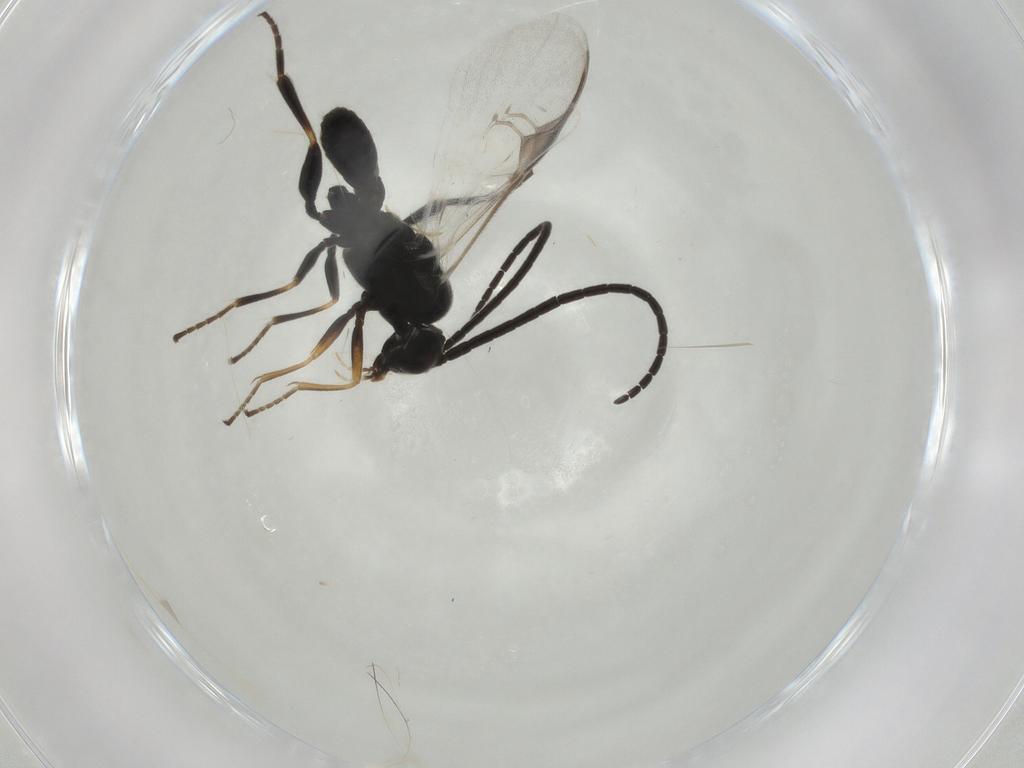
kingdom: Animalia
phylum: Arthropoda
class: Insecta
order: Hymenoptera
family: Braconidae
